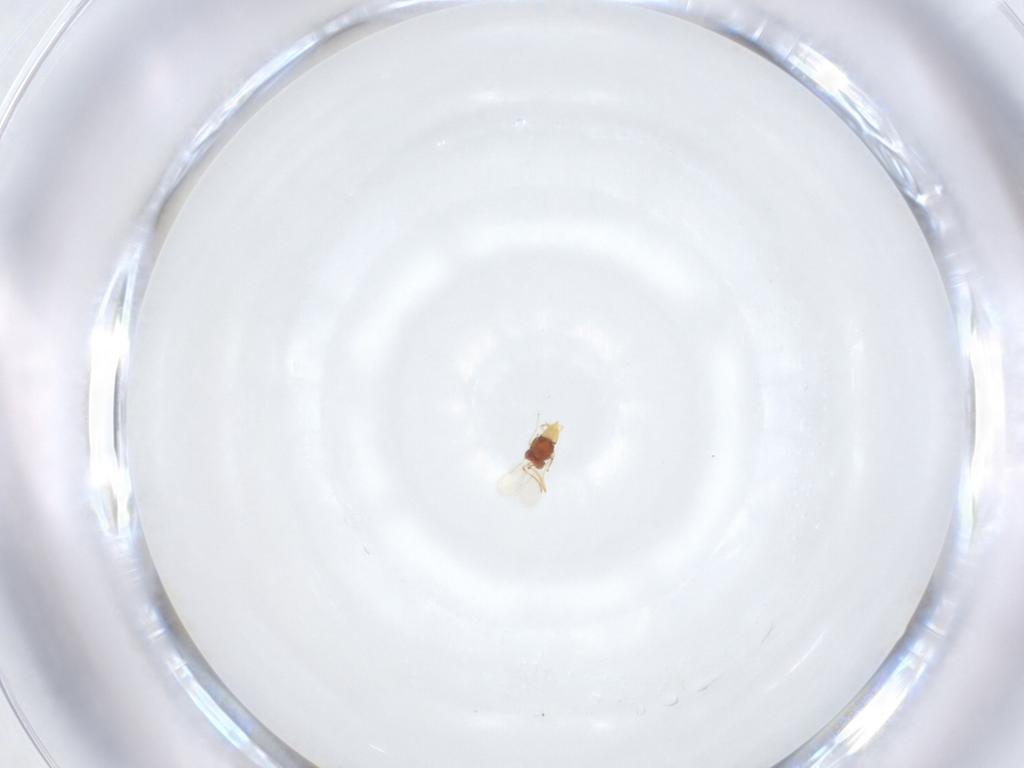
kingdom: Animalia
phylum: Arthropoda
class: Insecta
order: Hymenoptera
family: Aphelinidae
